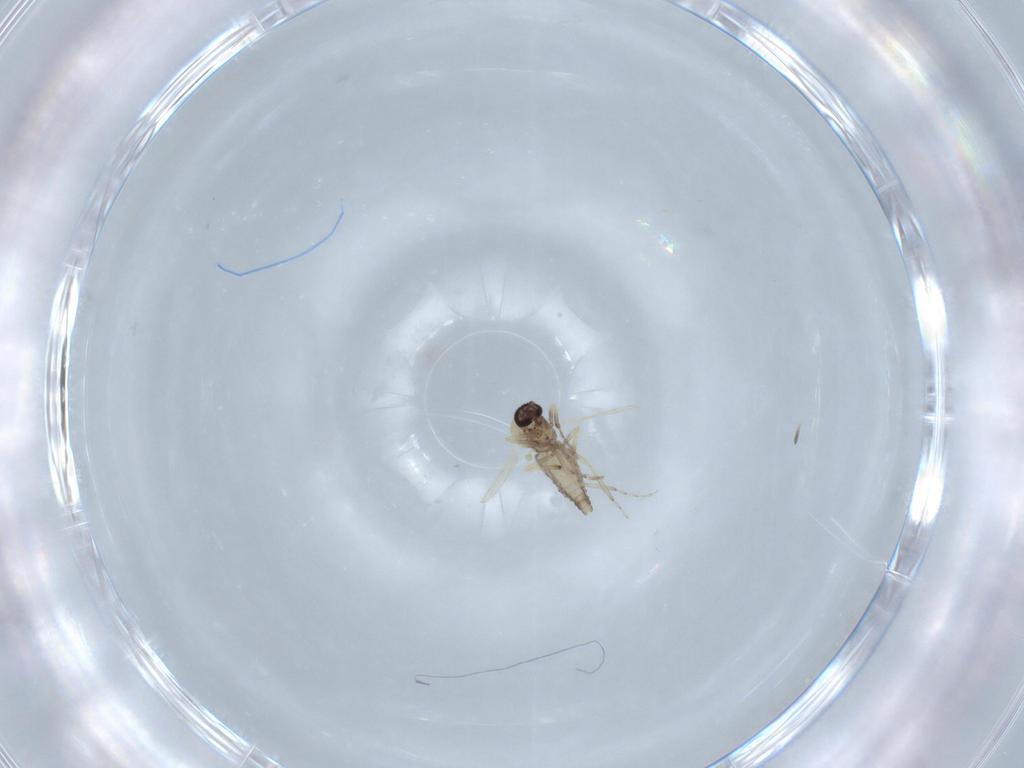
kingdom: Animalia
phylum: Arthropoda
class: Insecta
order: Diptera
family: Ceratopogonidae
